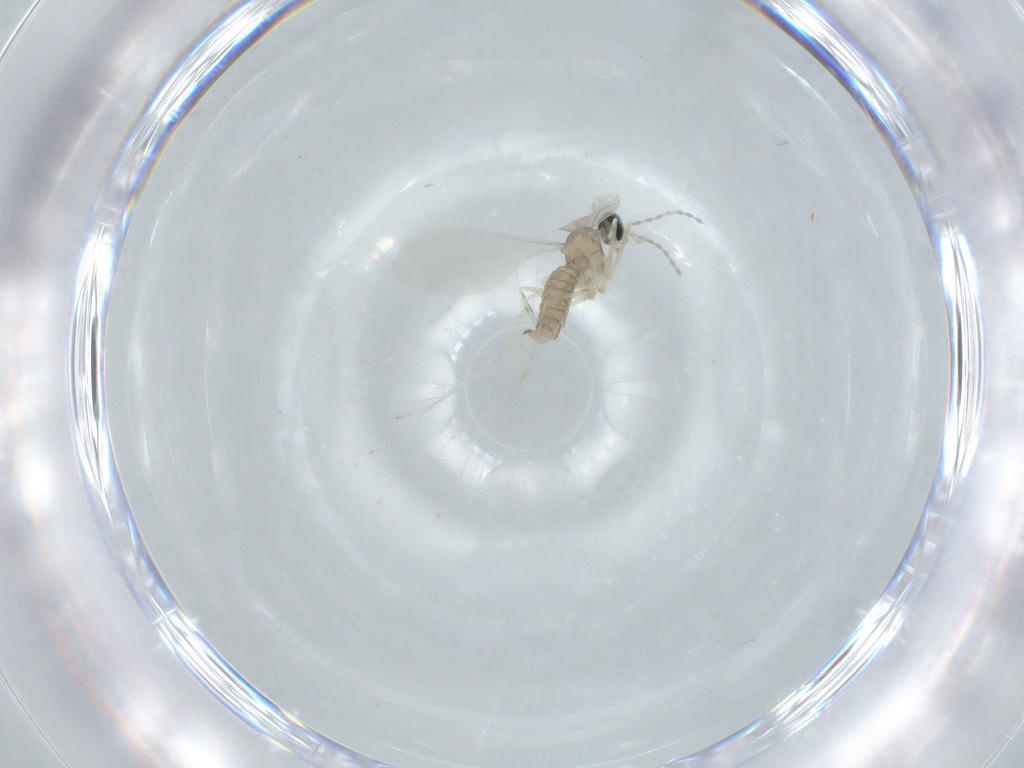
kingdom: Animalia
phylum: Arthropoda
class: Insecta
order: Diptera
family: Cecidomyiidae
